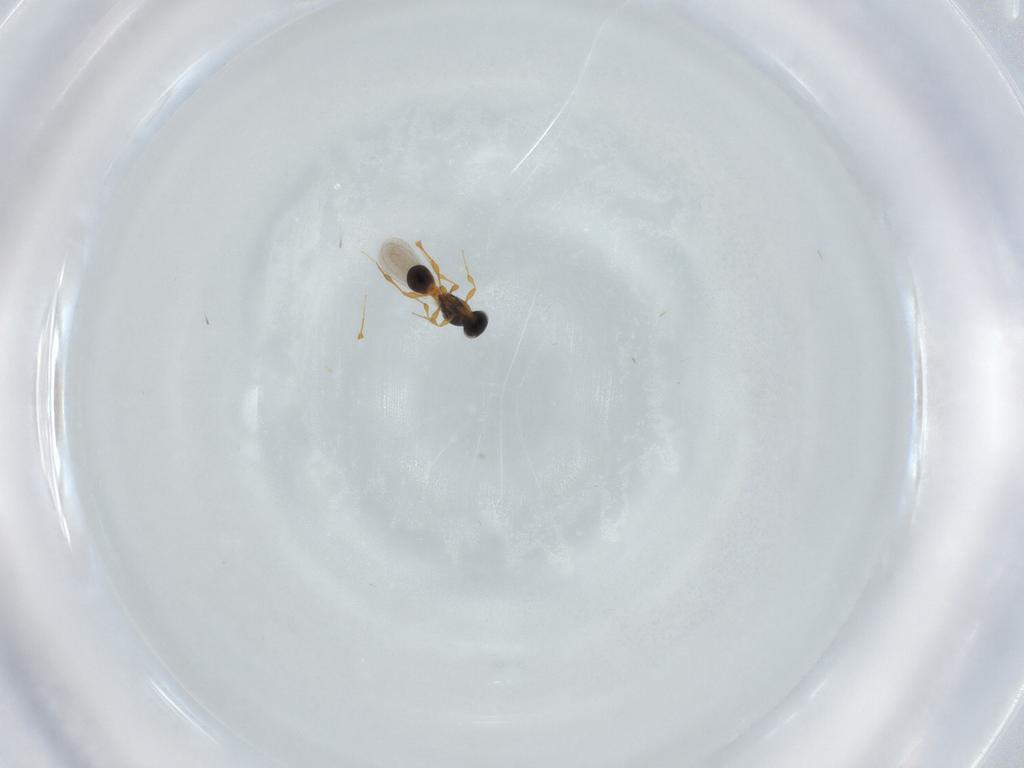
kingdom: Animalia
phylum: Arthropoda
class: Insecta
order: Hymenoptera
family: Platygastridae
